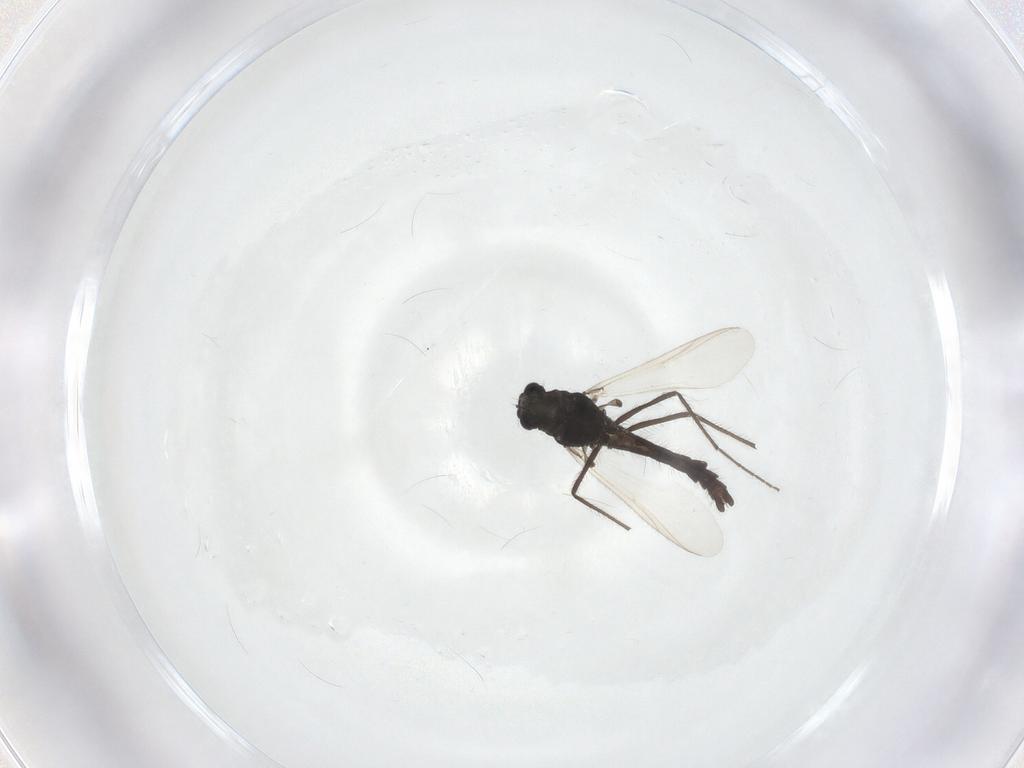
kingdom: Animalia
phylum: Arthropoda
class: Insecta
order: Diptera
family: Chironomidae
